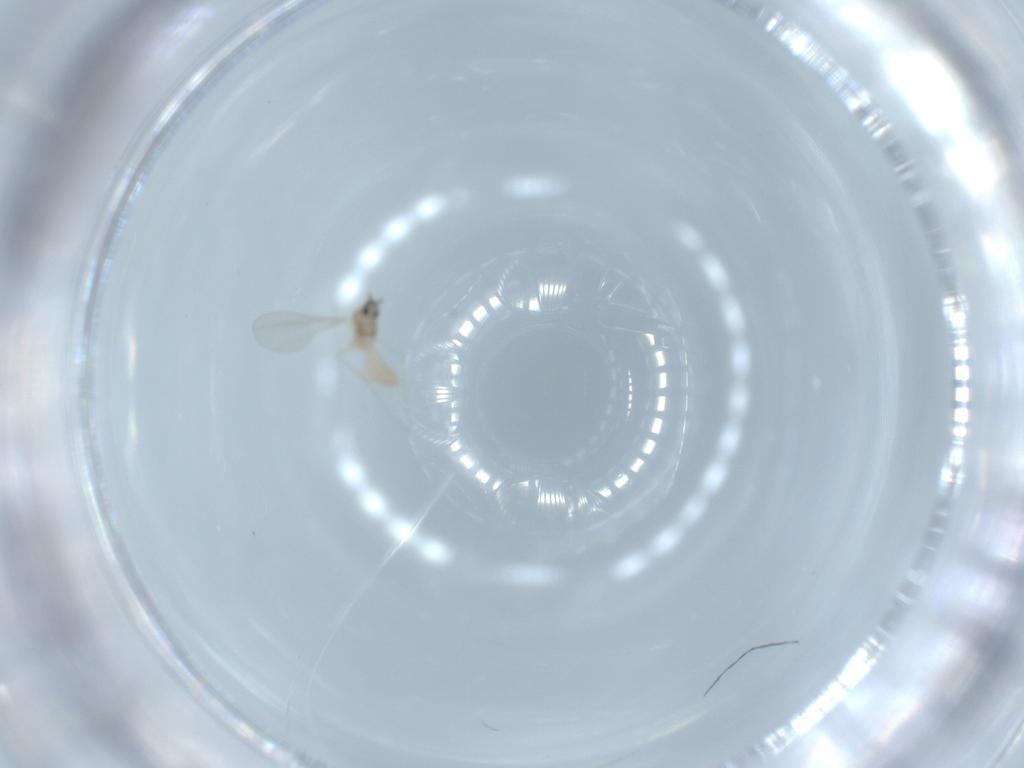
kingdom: Animalia
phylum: Arthropoda
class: Insecta
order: Diptera
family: Cecidomyiidae
